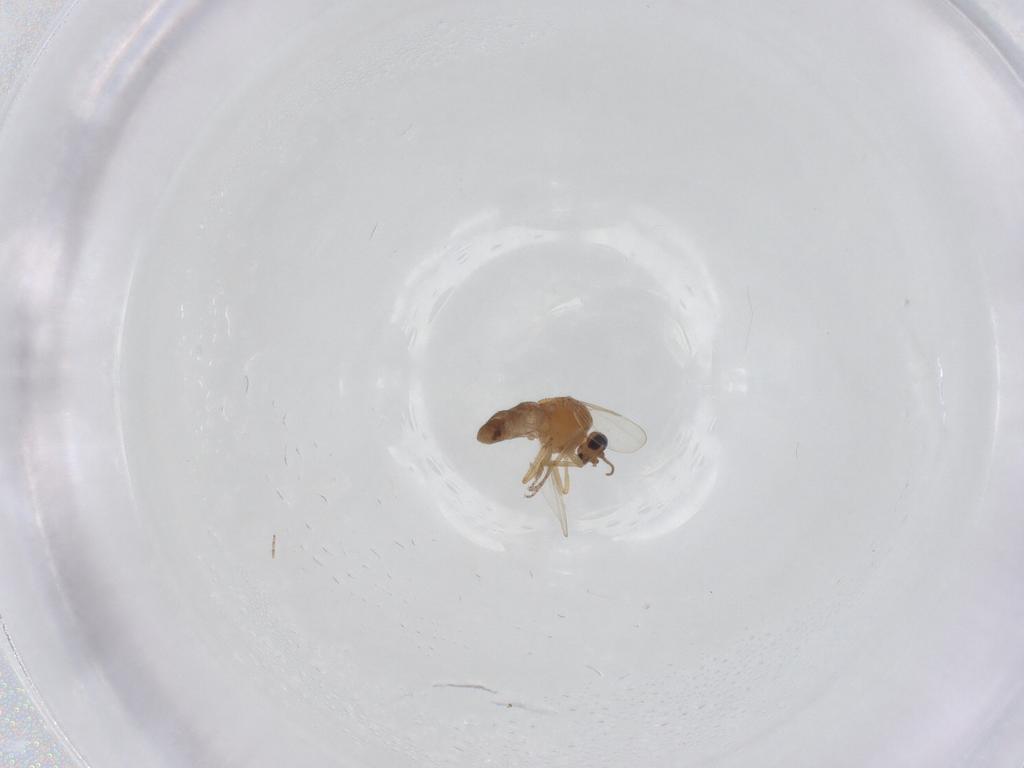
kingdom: Animalia
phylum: Arthropoda
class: Insecta
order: Diptera
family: Ceratopogonidae
